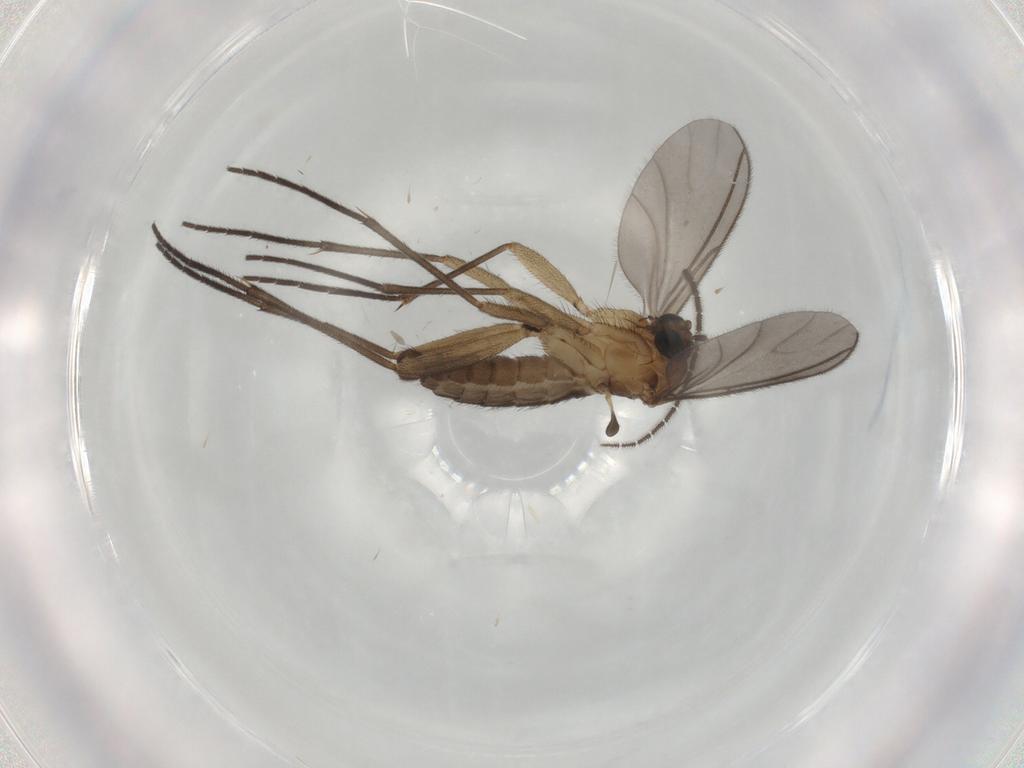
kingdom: Animalia
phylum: Arthropoda
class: Insecta
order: Diptera
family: Sciaridae
